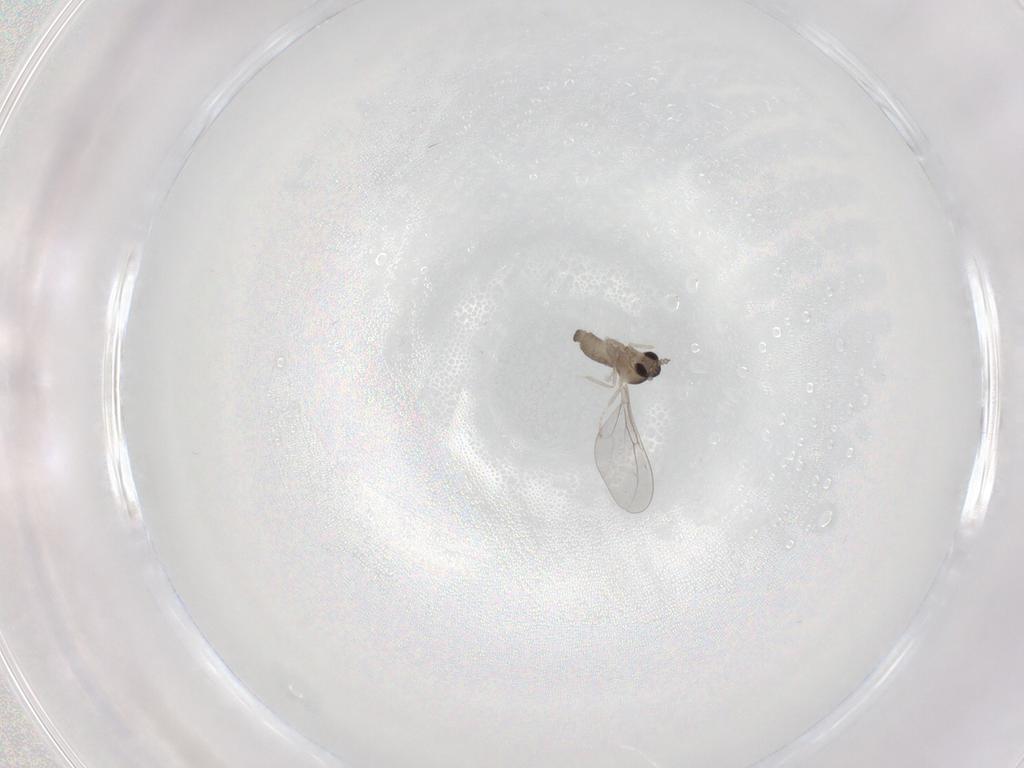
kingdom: Animalia
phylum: Arthropoda
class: Insecta
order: Diptera
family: Cecidomyiidae
